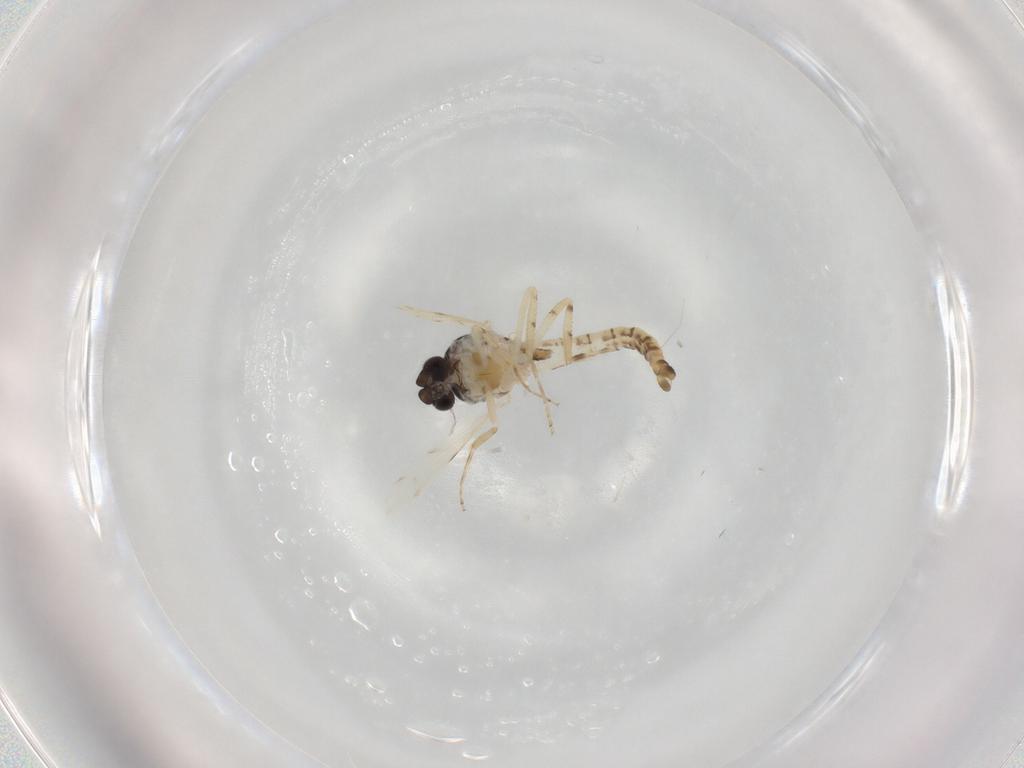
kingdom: Animalia
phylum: Arthropoda
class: Insecta
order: Diptera
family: Ceratopogonidae
